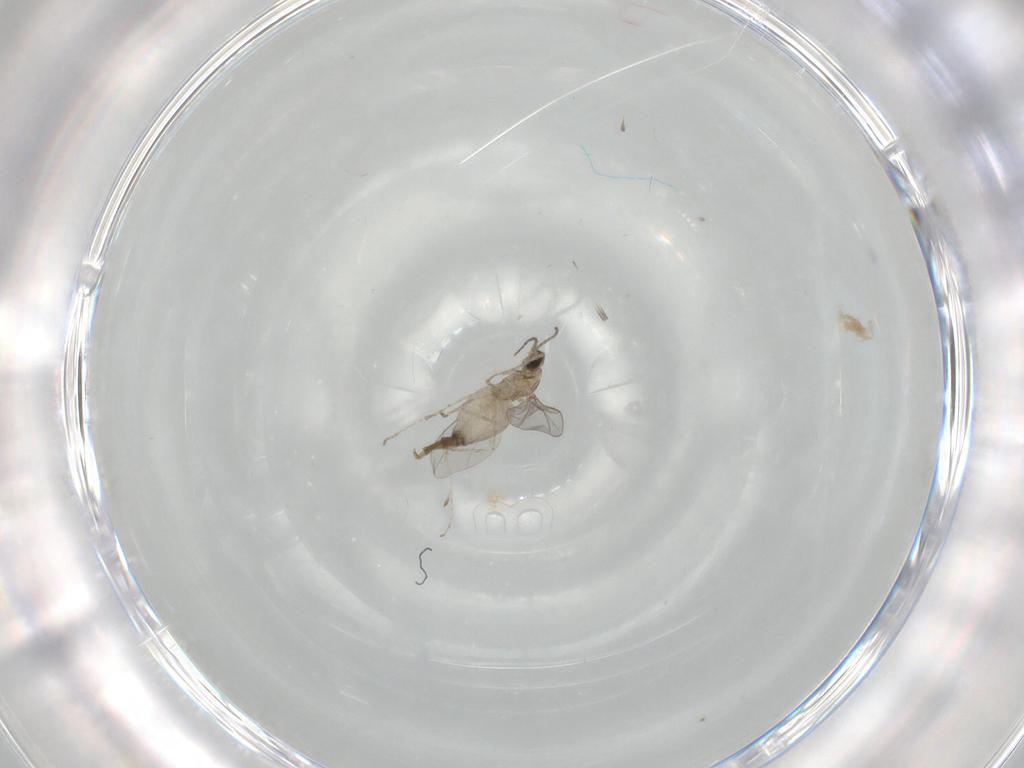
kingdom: Animalia
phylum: Arthropoda
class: Insecta
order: Diptera
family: Cecidomyiidae
